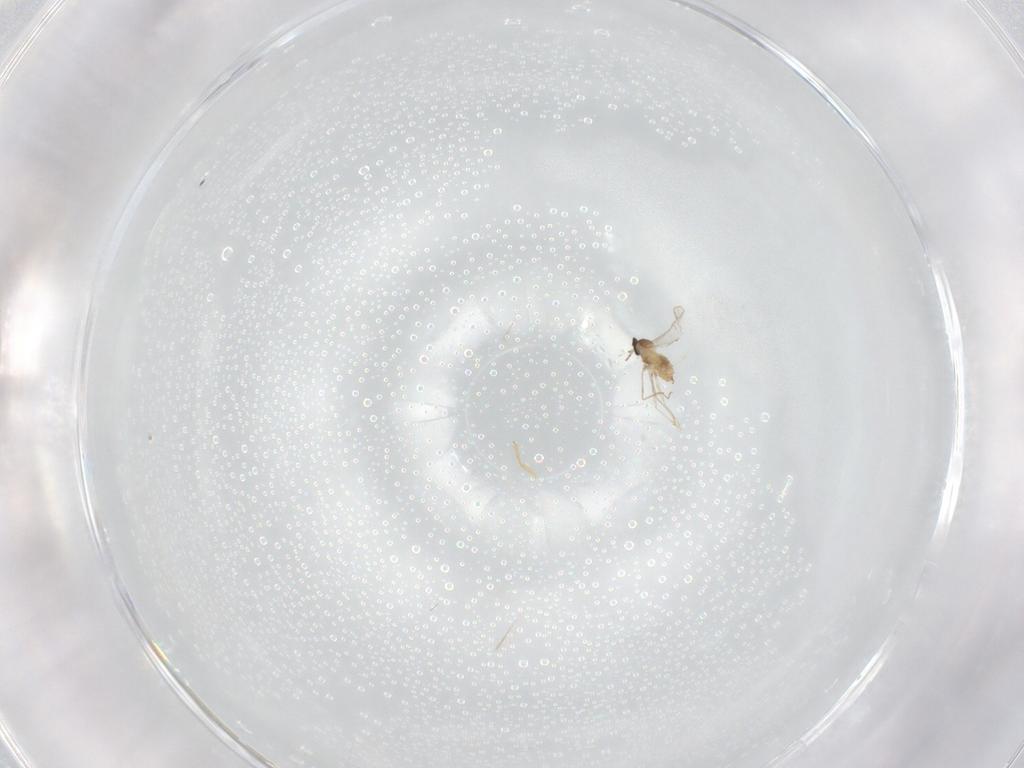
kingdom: Animalia
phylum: Arthropoda
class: Insecta
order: Diptera
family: Cecidomyiidae
